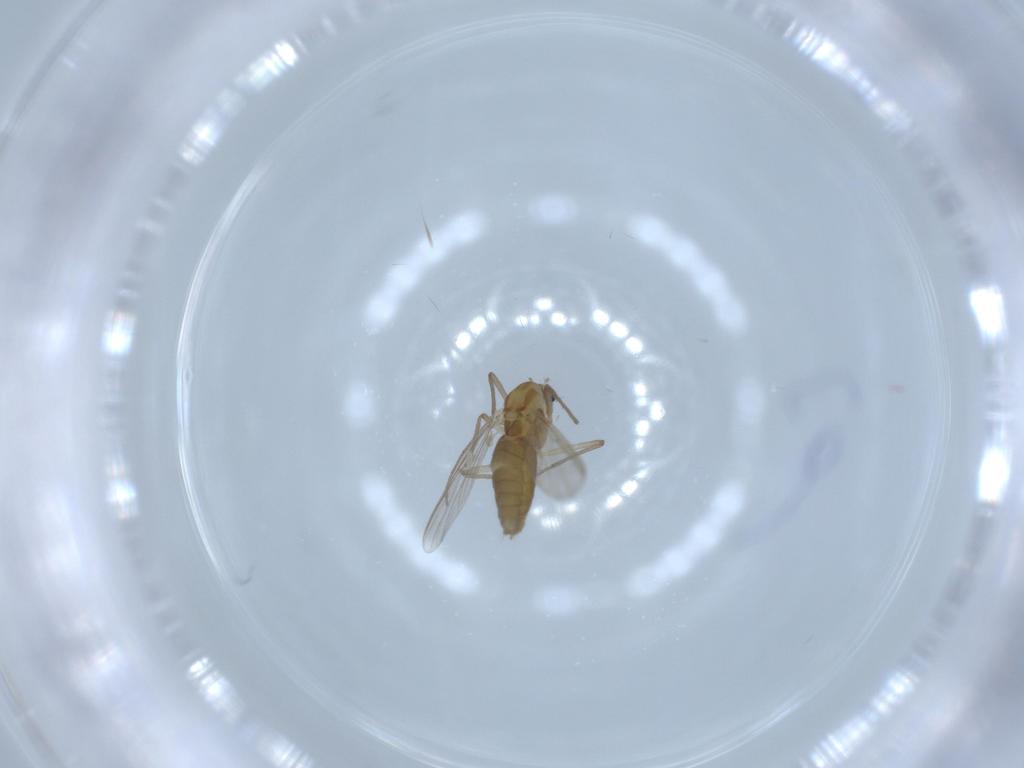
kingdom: Animalia
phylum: Arthropoda
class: Insecta
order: Diptera
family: Chironomidae
